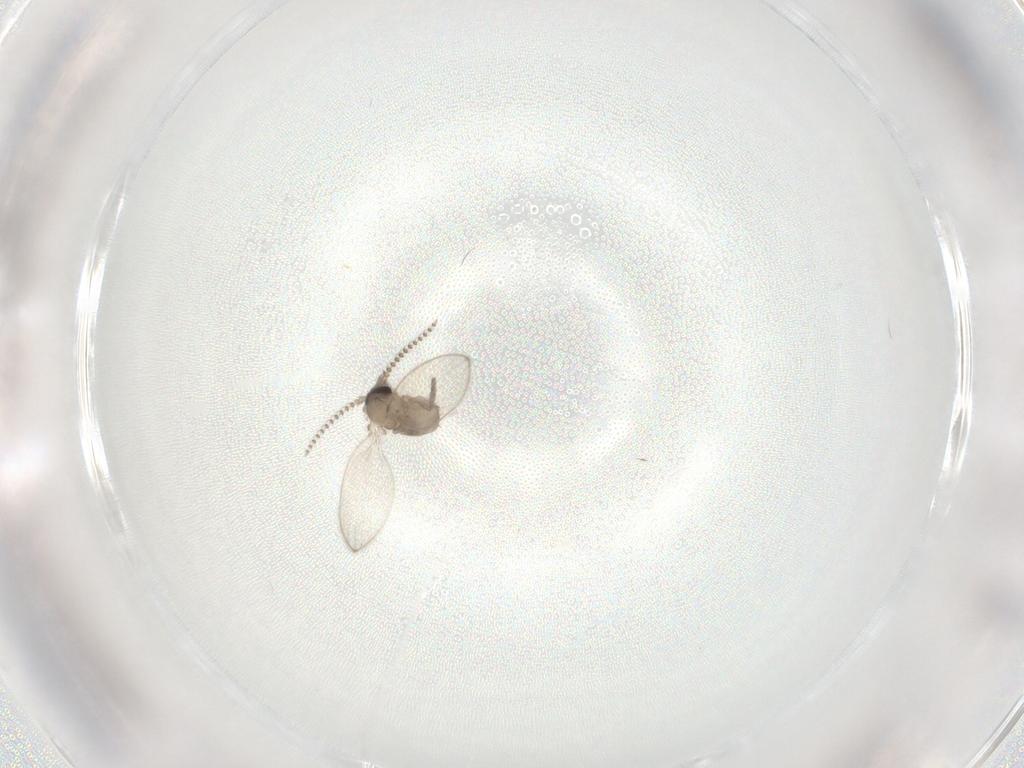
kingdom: Animalia
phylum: Arthropoda
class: Insecta
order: Diptera
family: Psychodidae
